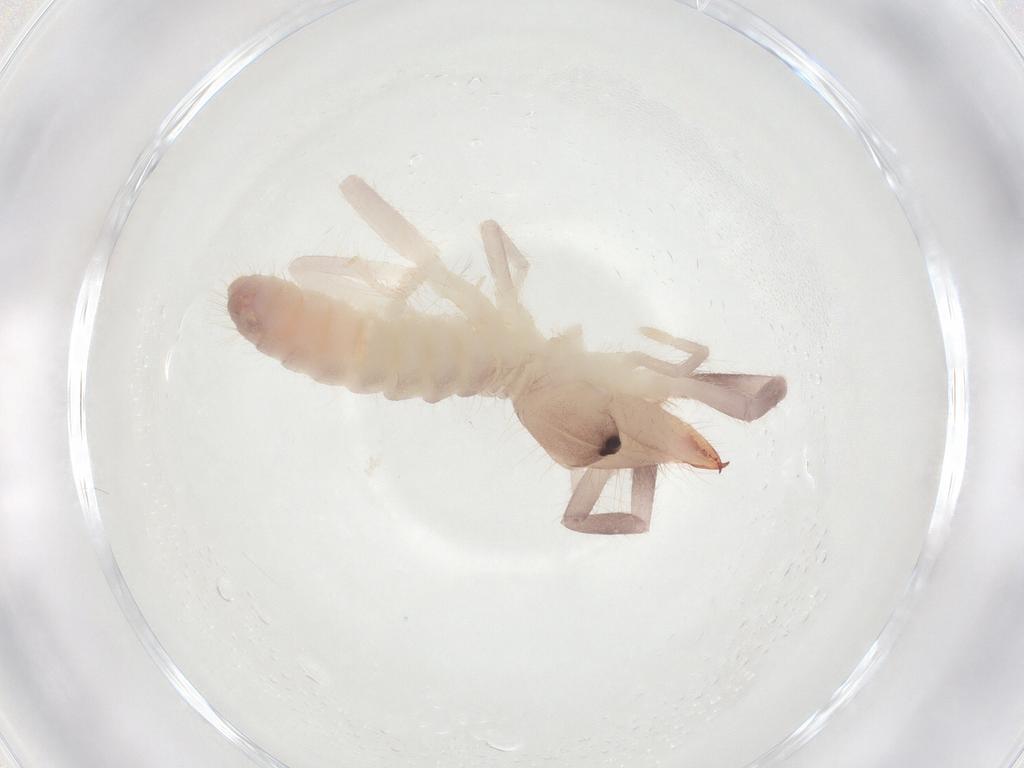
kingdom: Animalia
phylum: Arthropoda
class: Arachnida
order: Solifugae
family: Ammotrechidae
